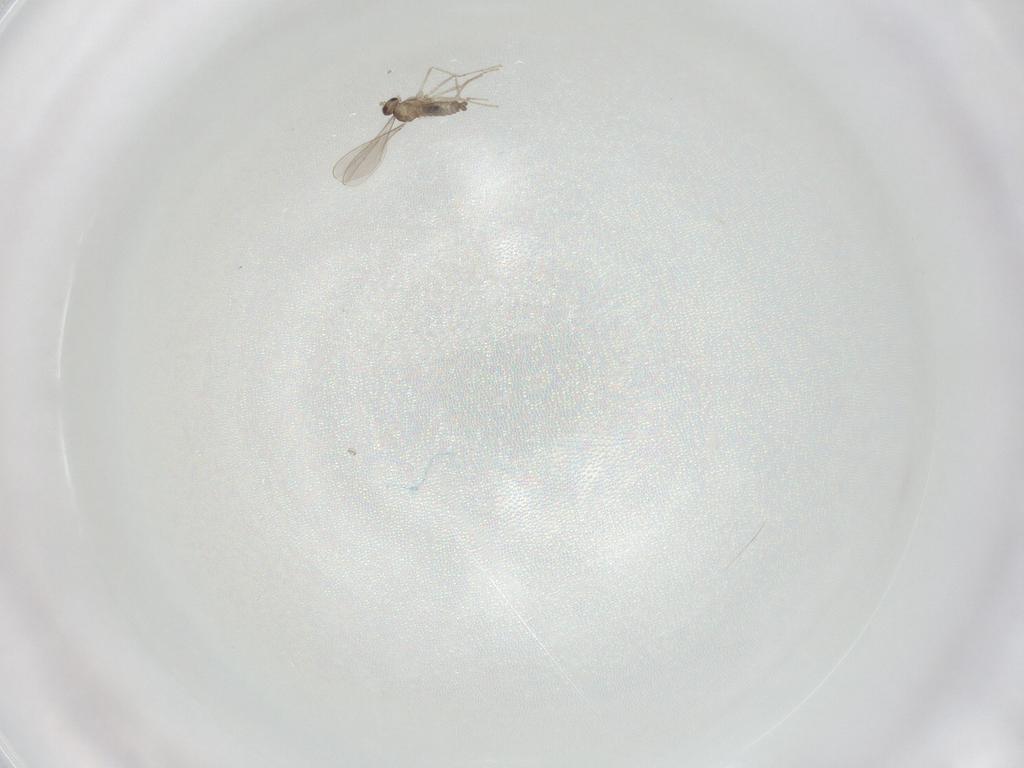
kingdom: Animalia
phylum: Arthropoda
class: Insecta
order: Diptera
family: Cecidomyiidae
